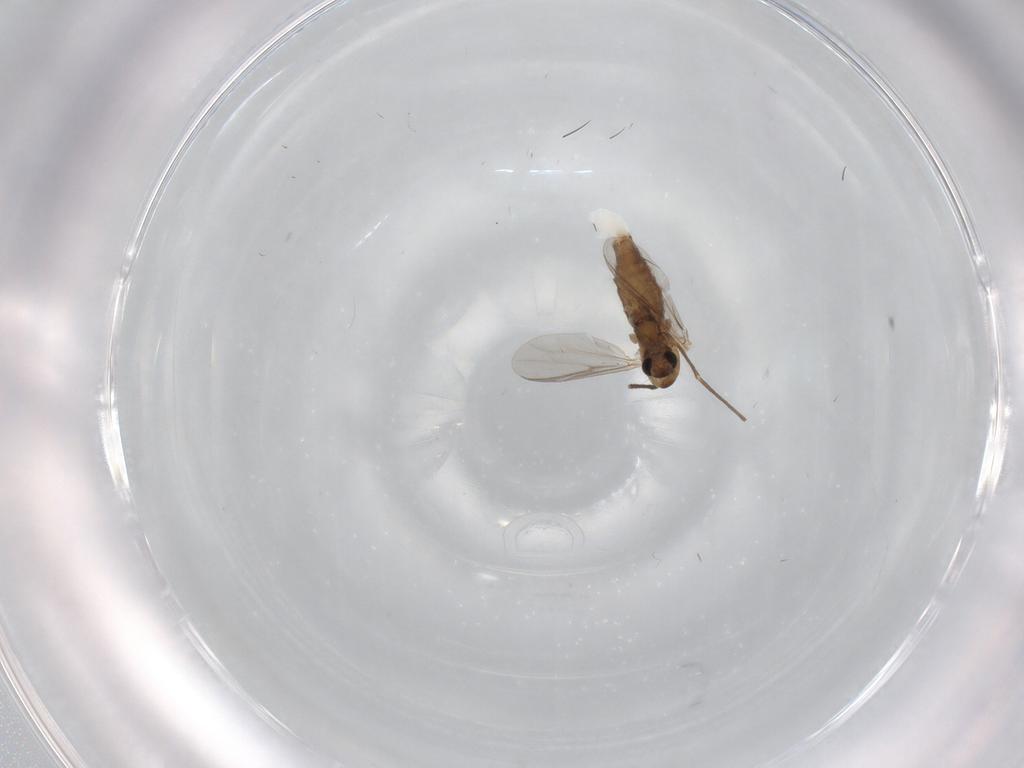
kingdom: Animalia
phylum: Arthropoda
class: Insecta
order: Diptera
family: Chironomidae
